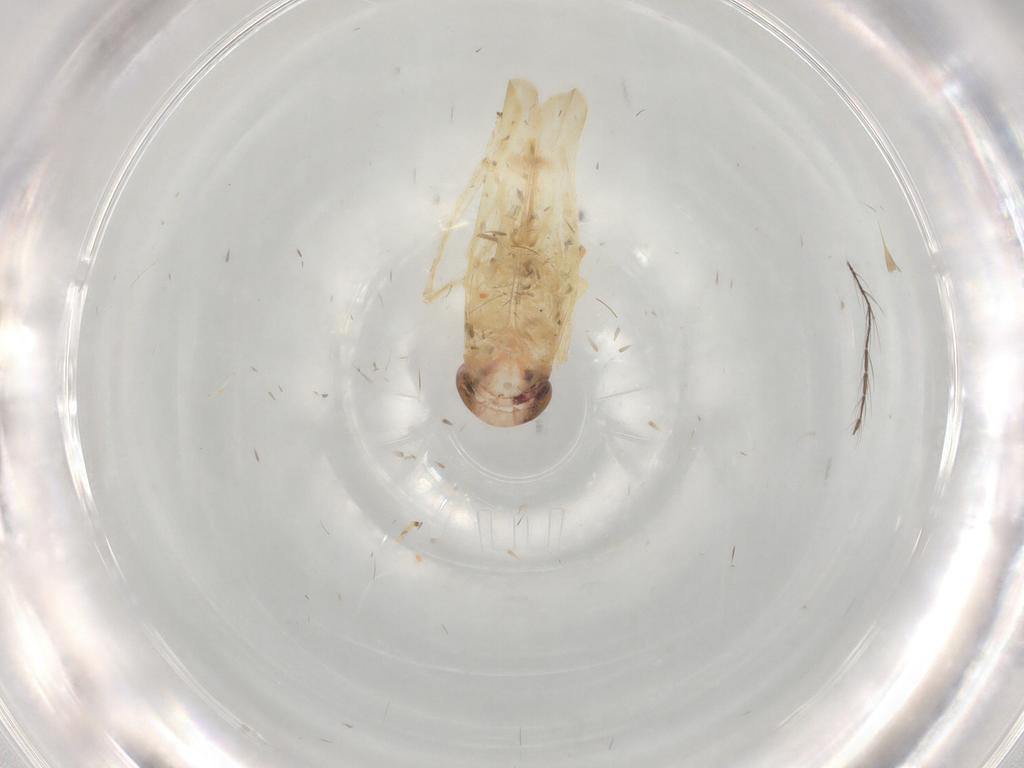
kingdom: Animalia
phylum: Arthropoda
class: Insecta
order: Hemiptera
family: Cicadellidae
